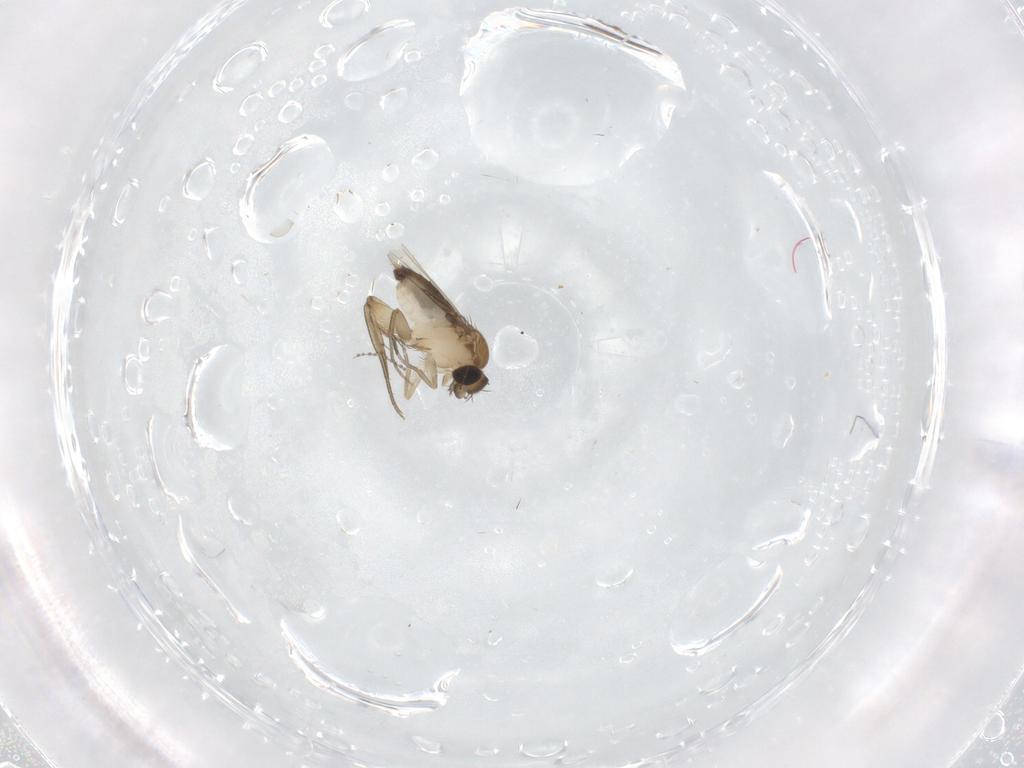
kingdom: Animalia
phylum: Arthropoda
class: Insecta
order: Diptera
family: Phoridae
